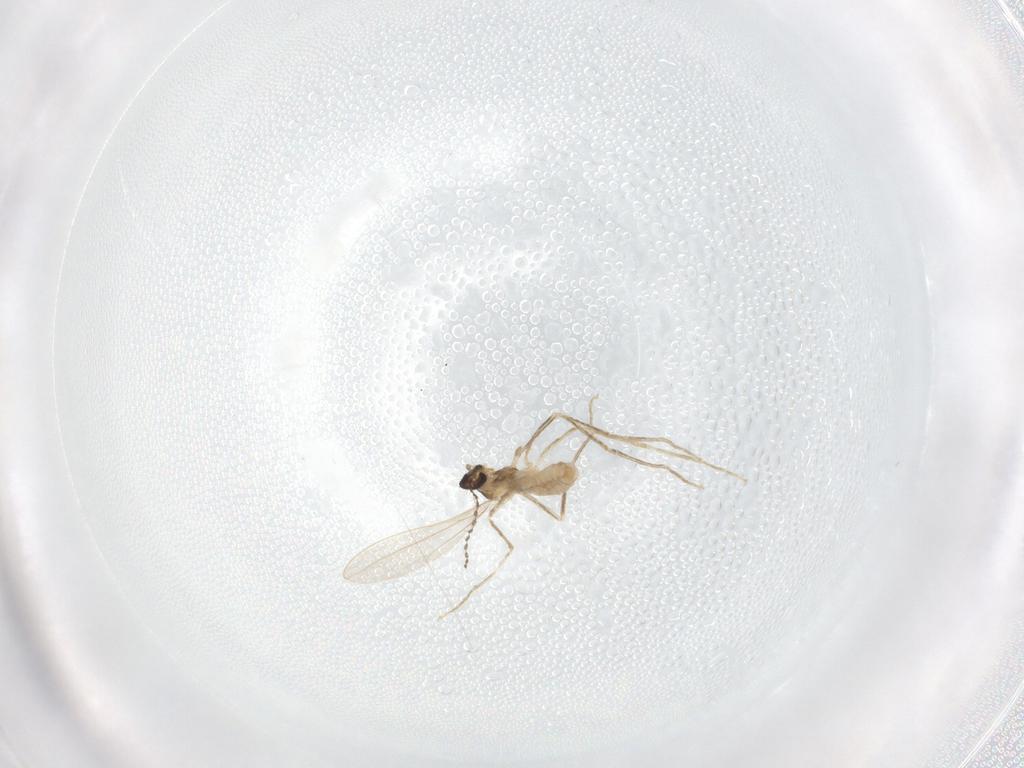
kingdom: Animalia
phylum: Arthropoda
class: Insecta
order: Diptera
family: Cecidomyiidae
